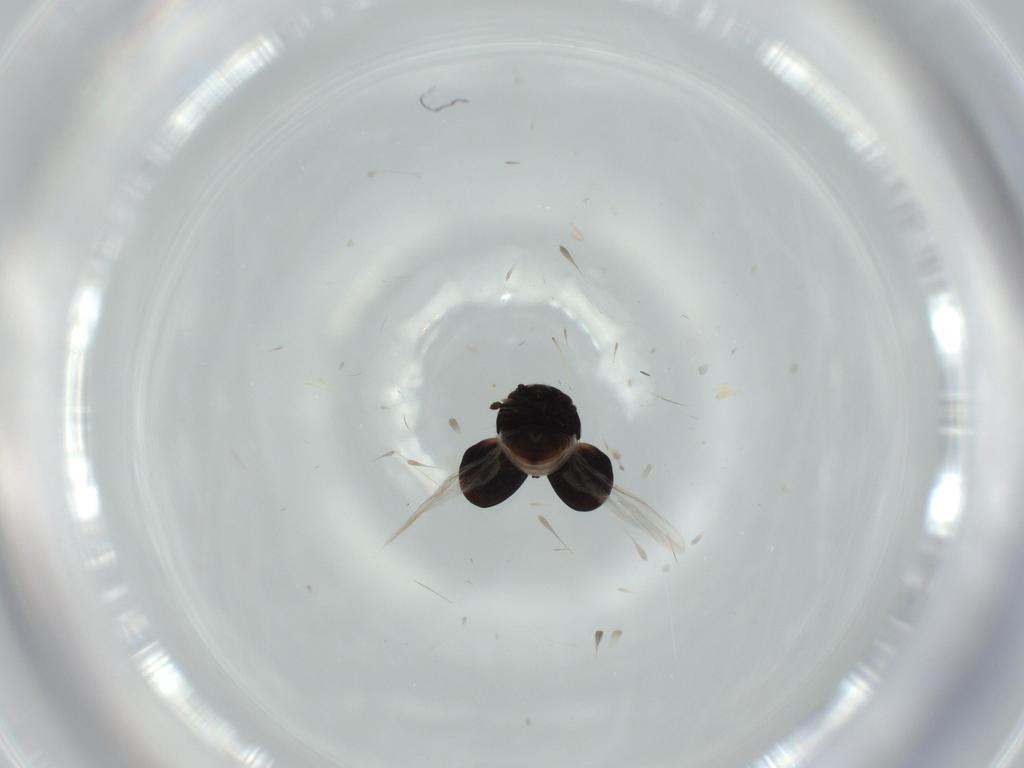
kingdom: Animalia
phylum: Arthropoda
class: Insecta
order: Coleoptera
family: Cybocephalidae
